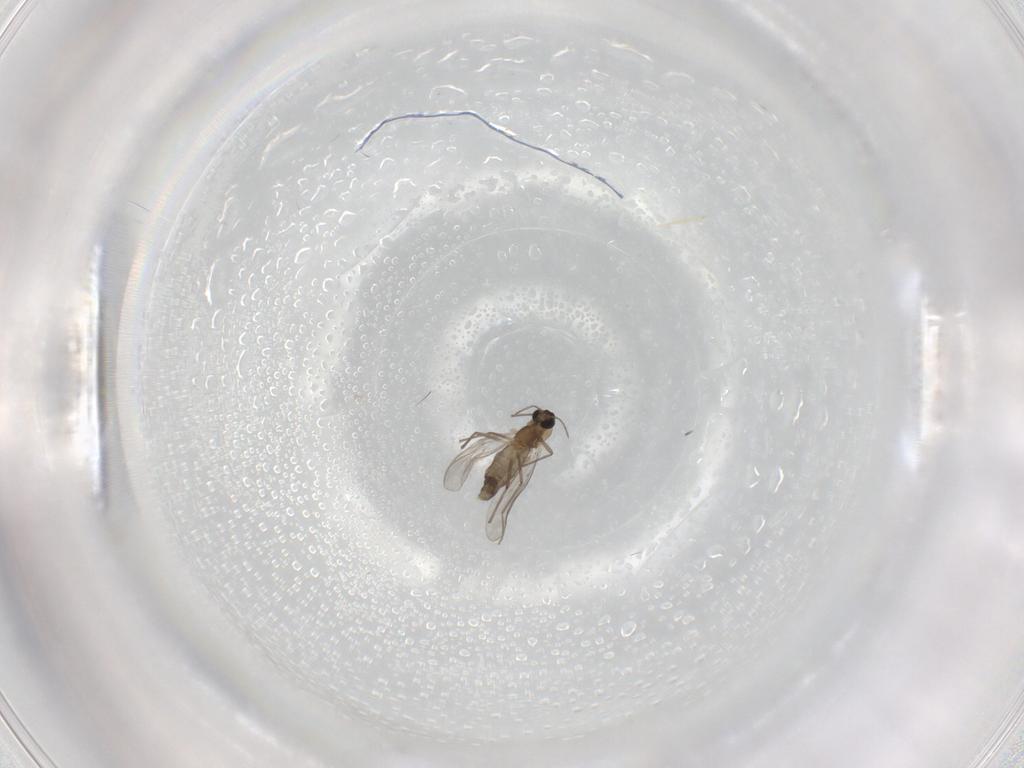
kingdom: Animalia
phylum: Arthropoda
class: Insecta
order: Diptera
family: Chironomidae
